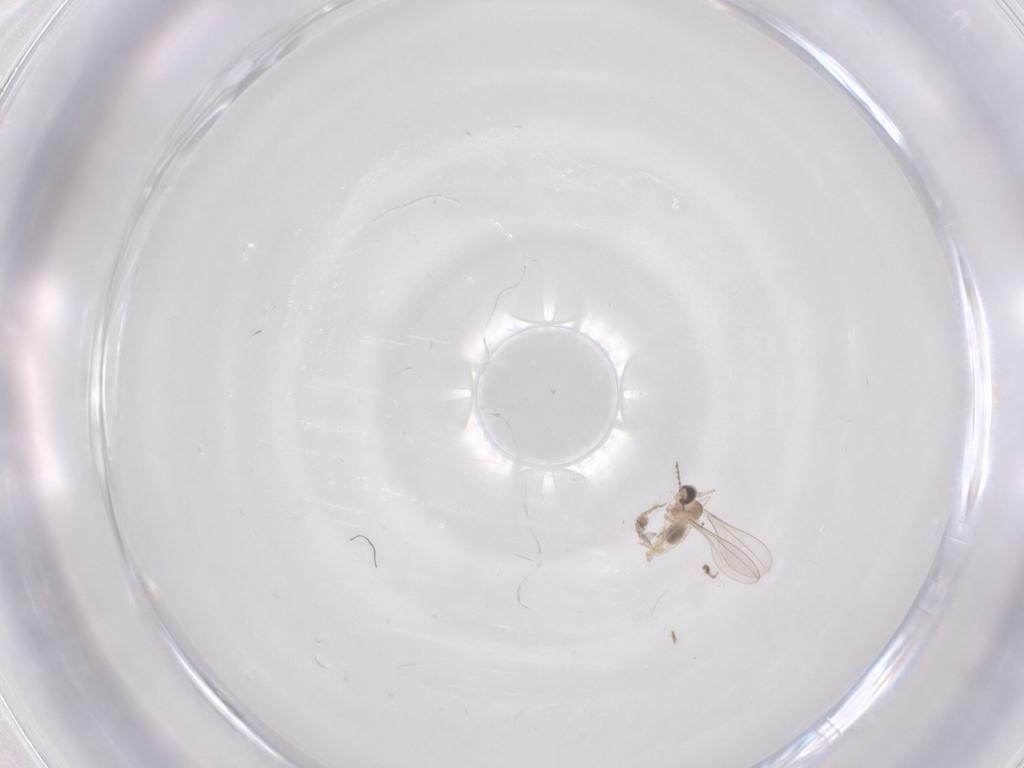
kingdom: Animalia
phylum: Arthropoda
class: Insecta
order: Diptera
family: Cecidomyiidae
